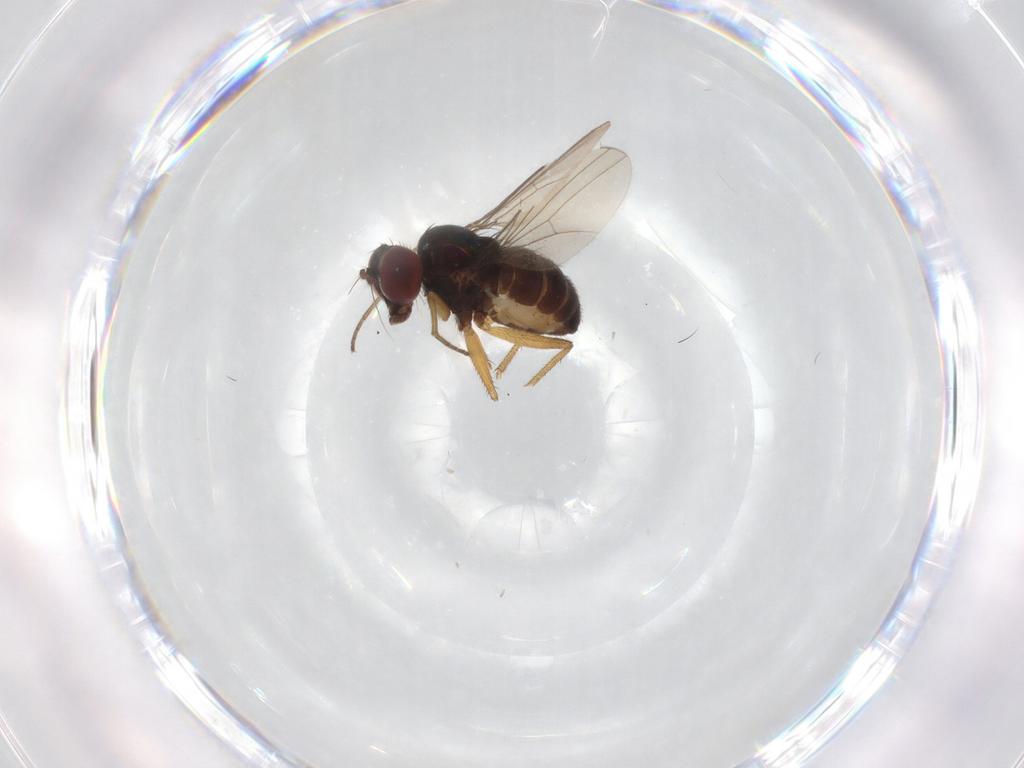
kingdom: Animalia
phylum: Arthropoda
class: Insecta
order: Diptera
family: Dolichopodidae
